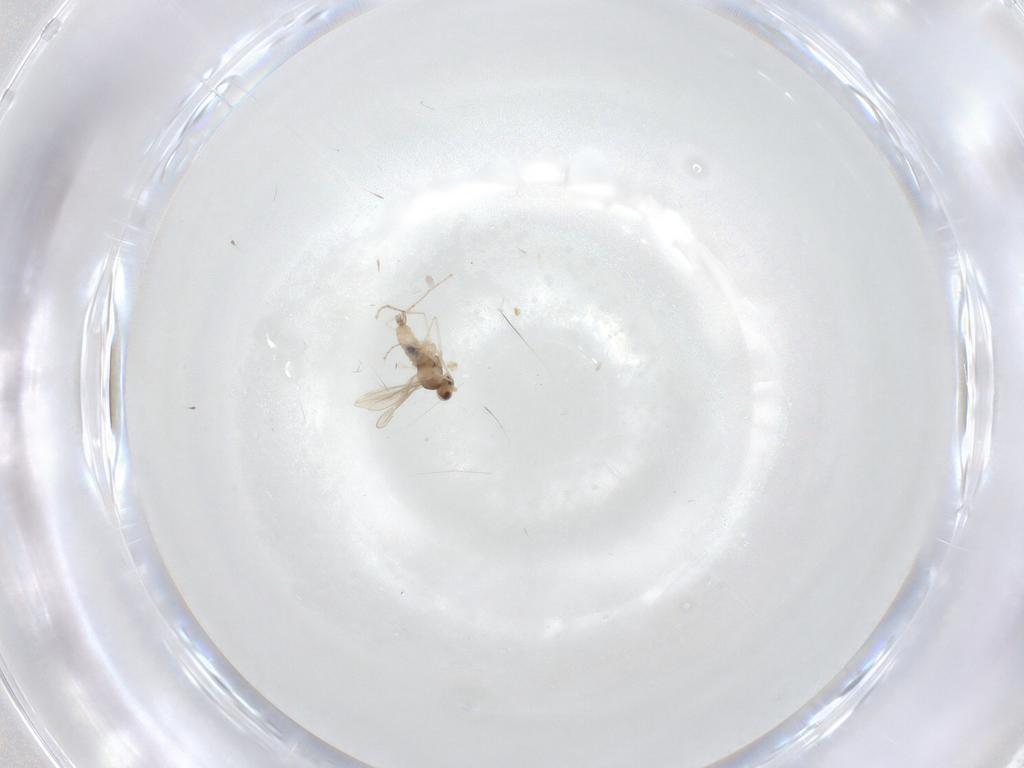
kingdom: Animalia
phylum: Arthropoda
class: Insecta
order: Diptera
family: Cecidomyiidae
